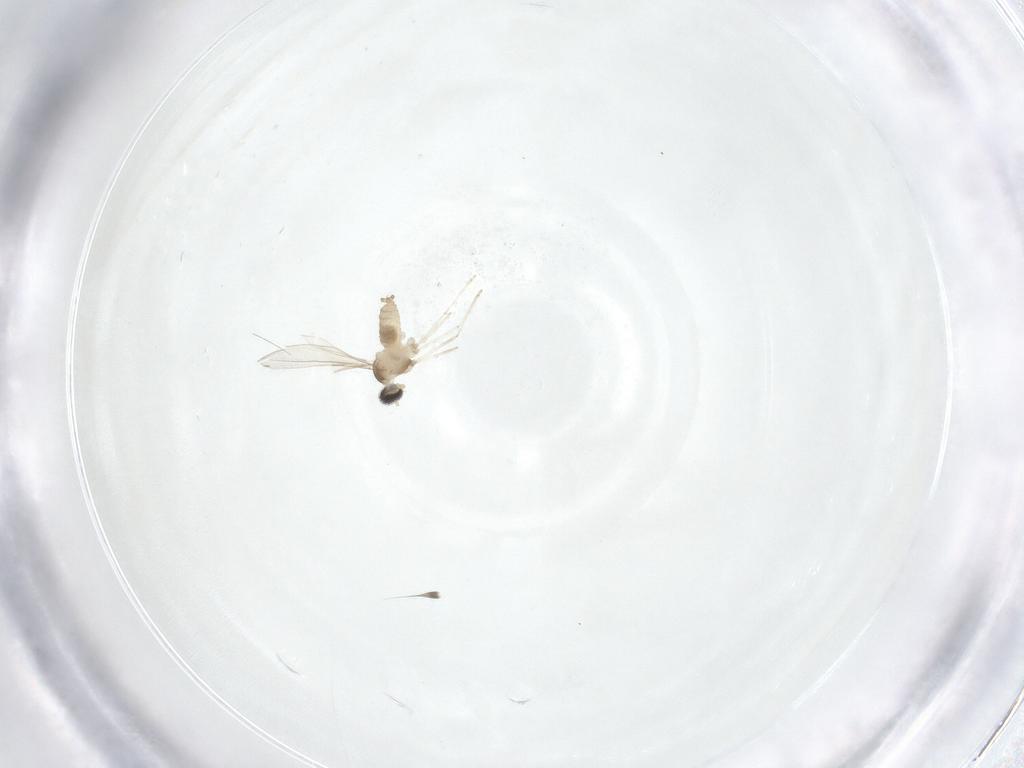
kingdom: Animalia
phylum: Arthropoda
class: Insecta
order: Diptera
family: Cecidomyiidae
